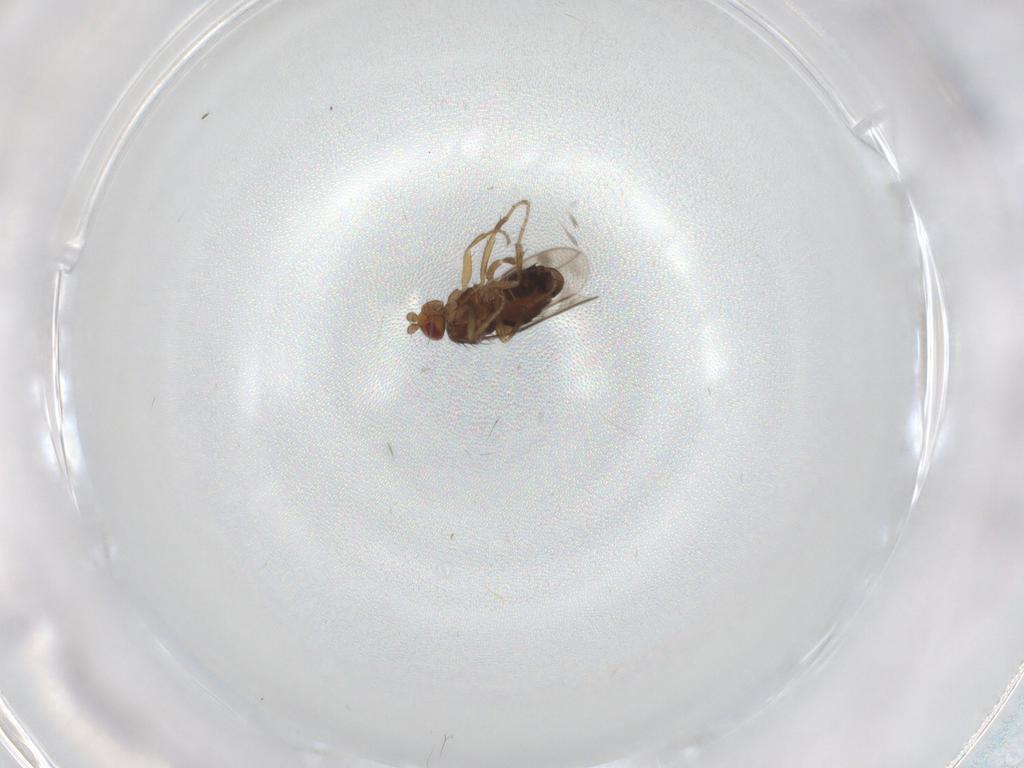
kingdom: Animalia
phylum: Arthropoda
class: Insecta
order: Diptera
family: Sphaeroceridae
